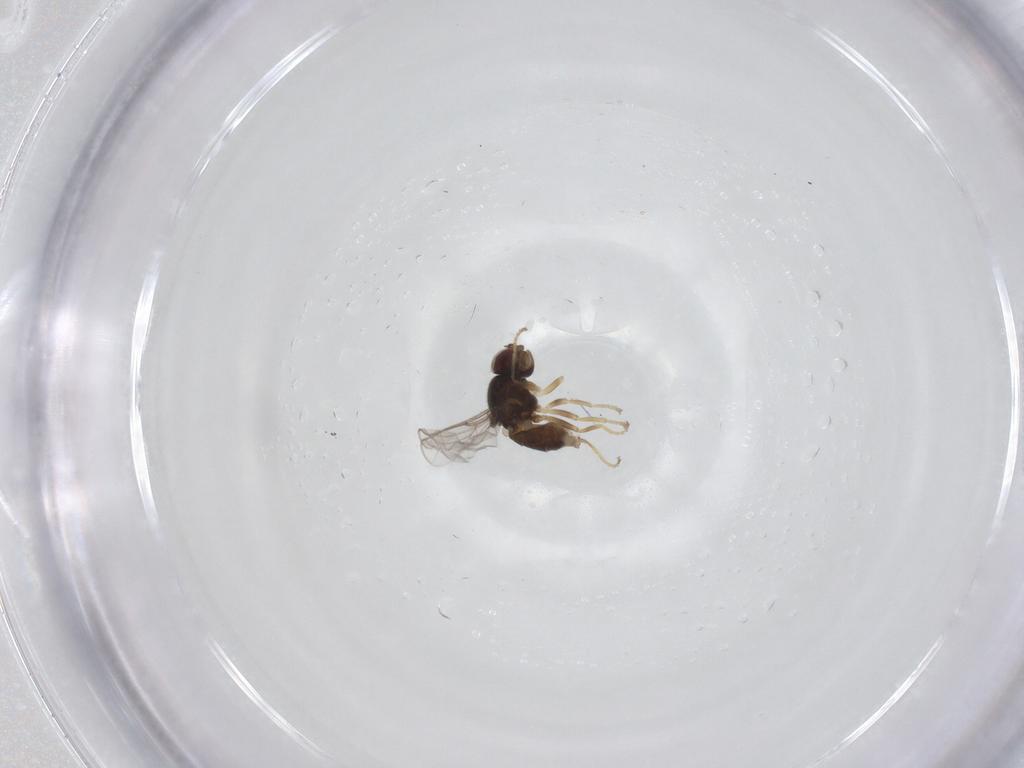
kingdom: Animalia
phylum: Arthropoda
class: Insecta
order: Diptera
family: Chloropidae
